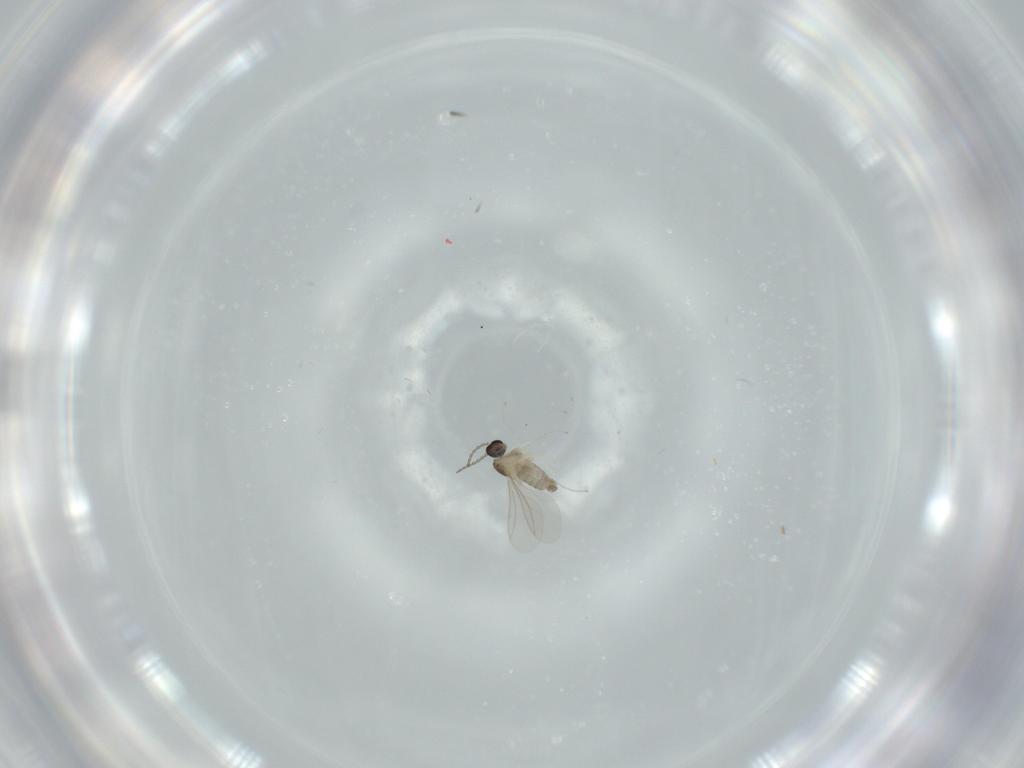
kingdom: Animalia
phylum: Arthropoda
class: Insecta
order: Diptera
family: Cecidomyiidae
